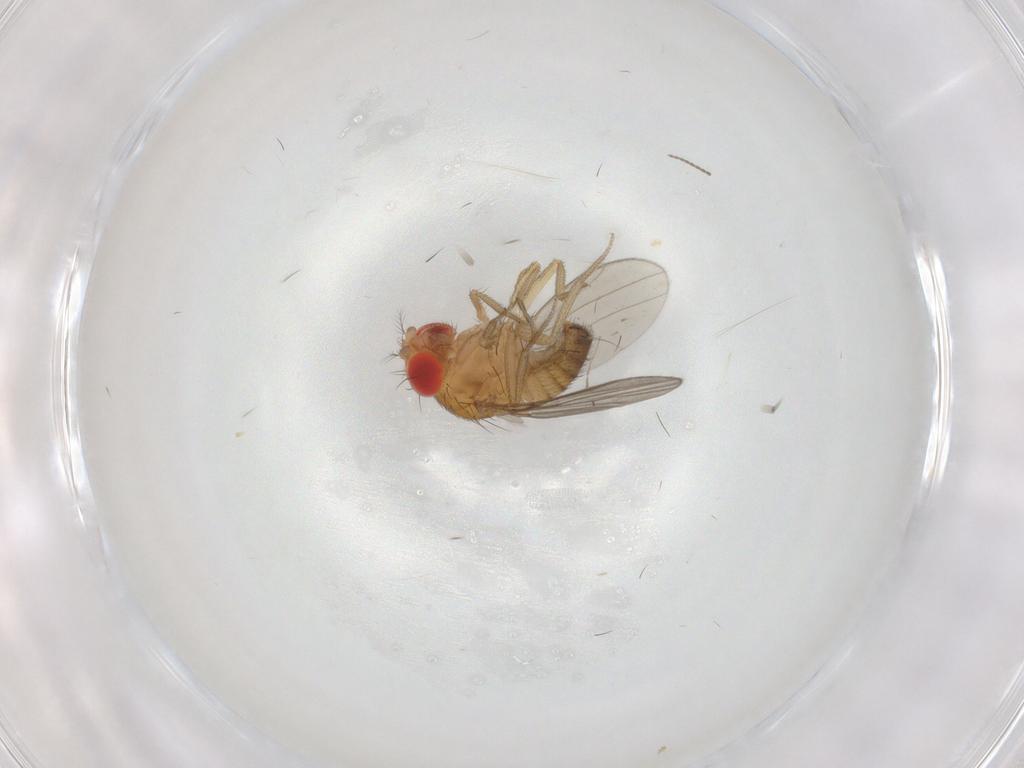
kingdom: Animalia
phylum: Arthropoda
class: Insecta
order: Diptera
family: Drosophilidae
